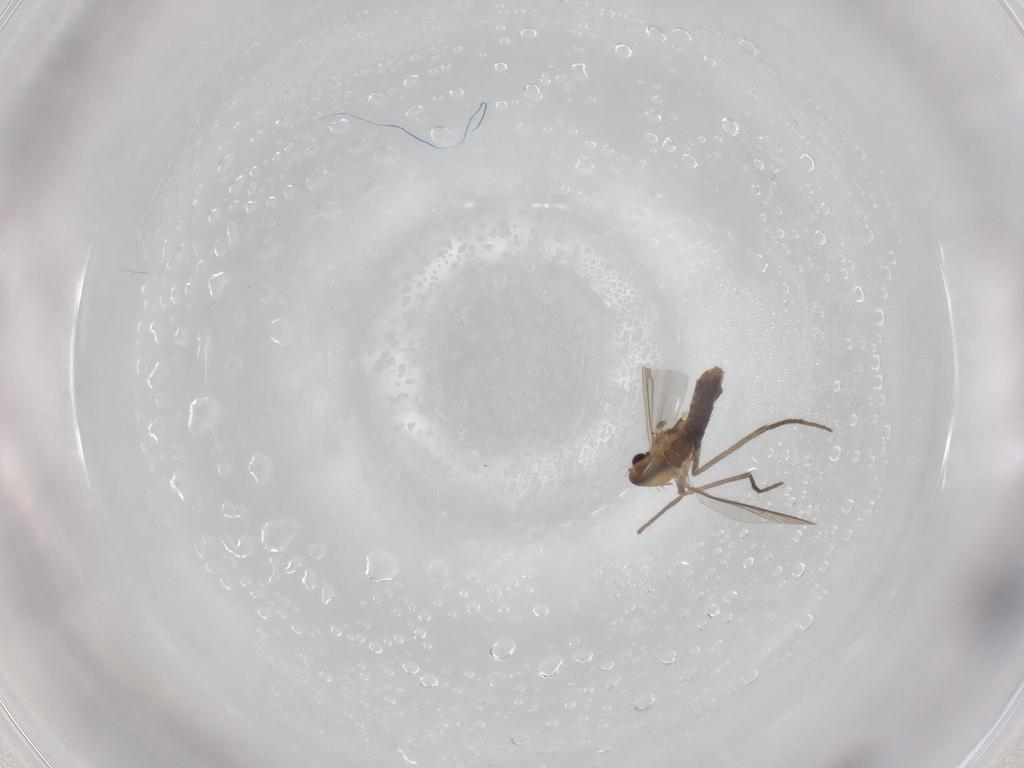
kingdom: Animalia
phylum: Arthropoda
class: Insecta
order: Diptera
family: Chironomidae
